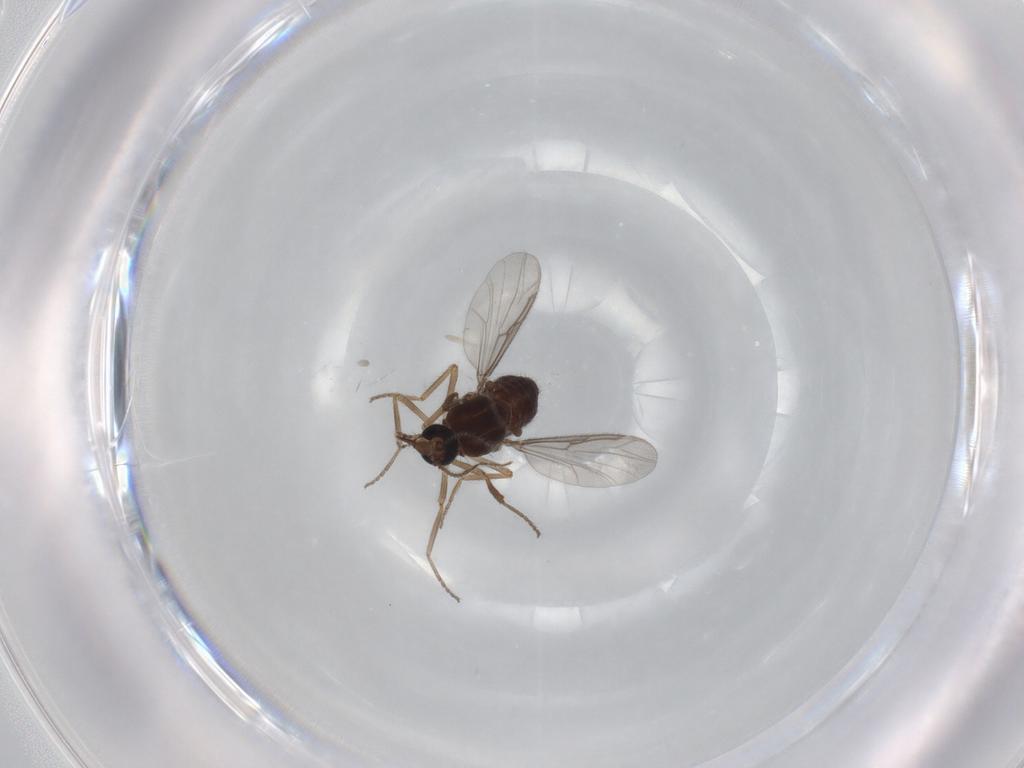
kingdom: Animalia
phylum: Arthropoda
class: Insecta
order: Diptera
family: Ceratopogonidae
